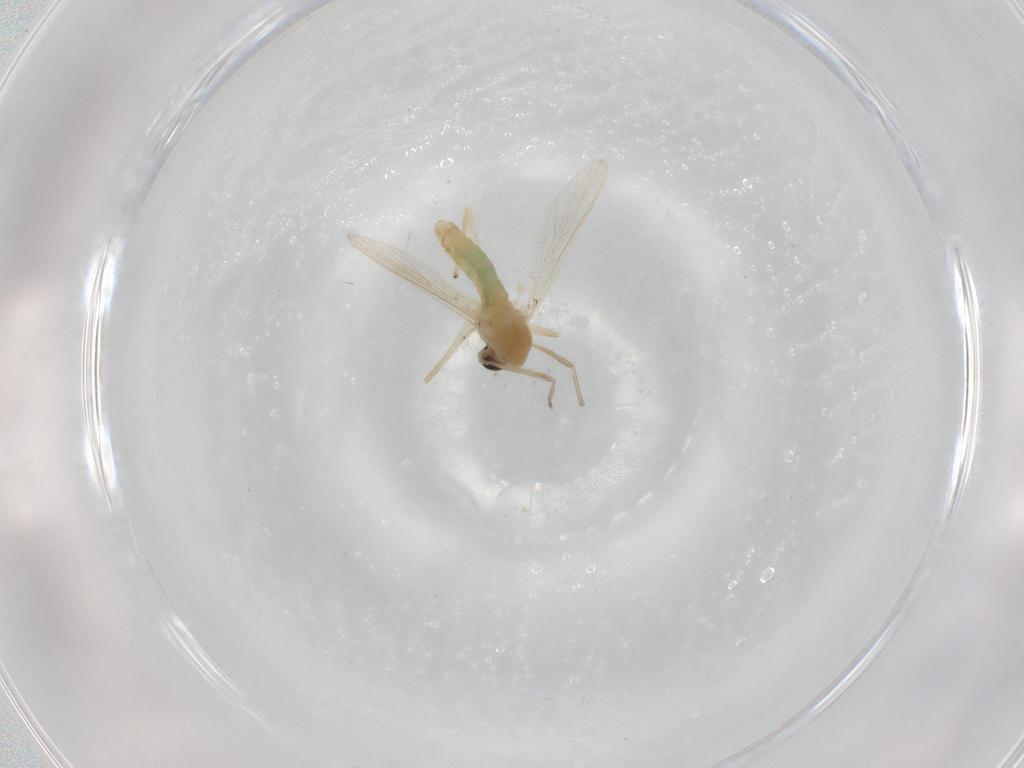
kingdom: Animalia
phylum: Arthropoda
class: Insecta
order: Diptera
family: Chironomidae
